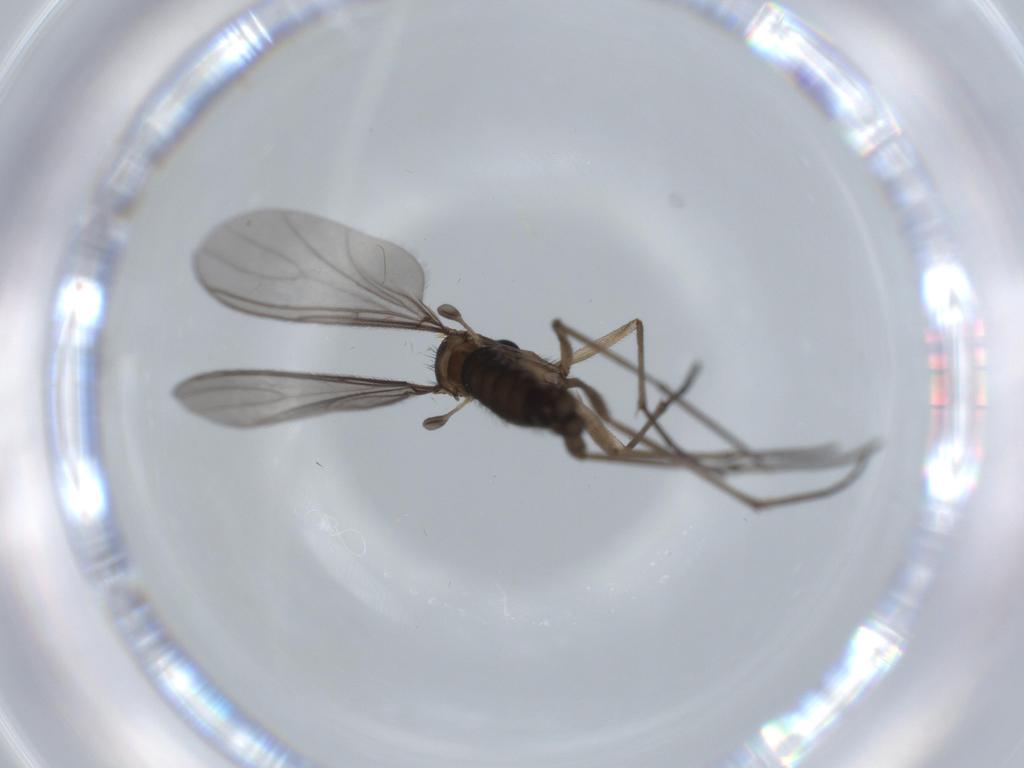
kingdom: Animalia
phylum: Arthropoda
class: Insecta
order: Diptera
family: Sciaridae
